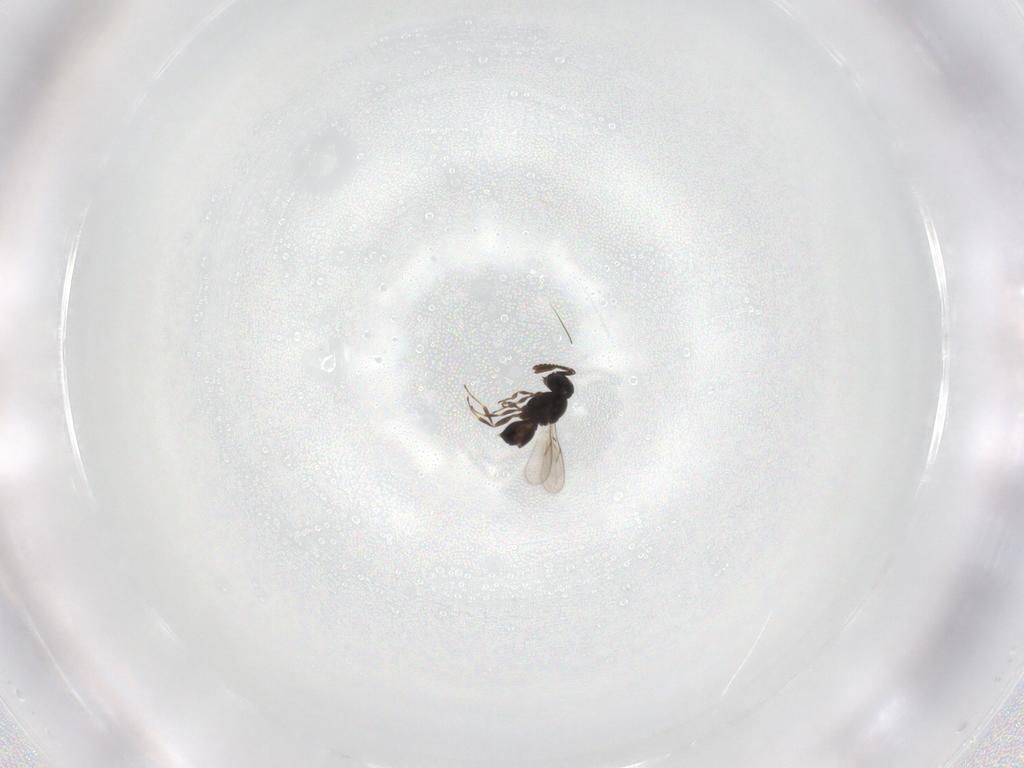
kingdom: Animalia
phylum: Arthropoda
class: Insecta
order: Hymenoptera
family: Scelionidae
